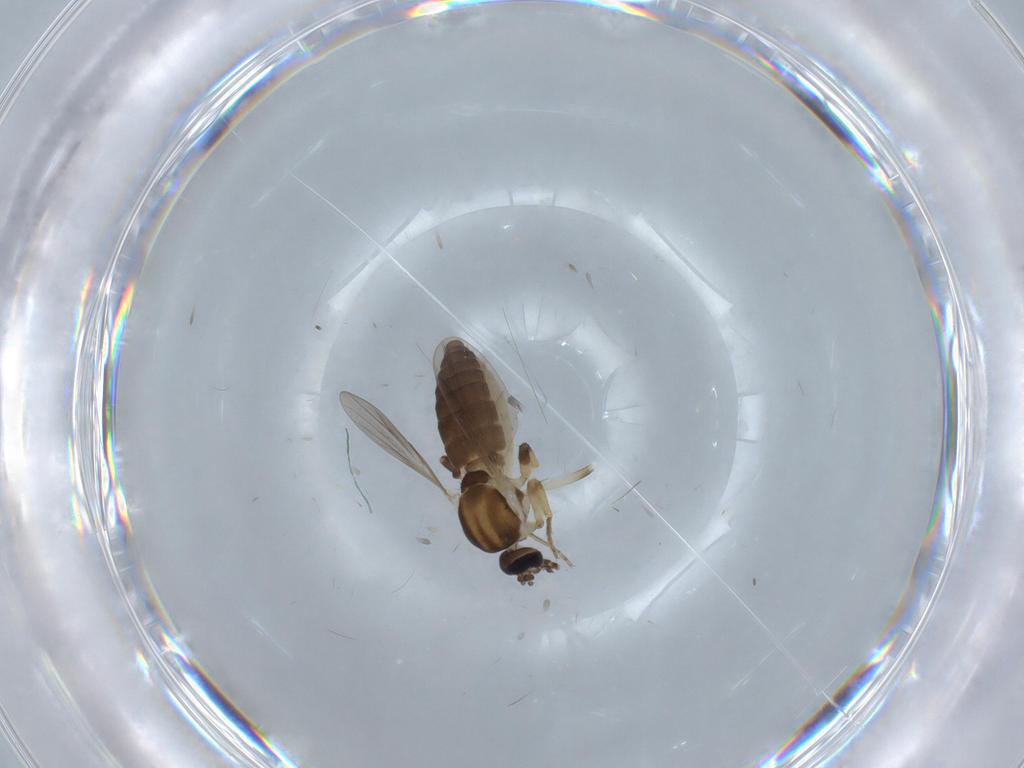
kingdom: Animalia
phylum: Arthropoda
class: Insecta
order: Diptera
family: Ceratopogonidae
